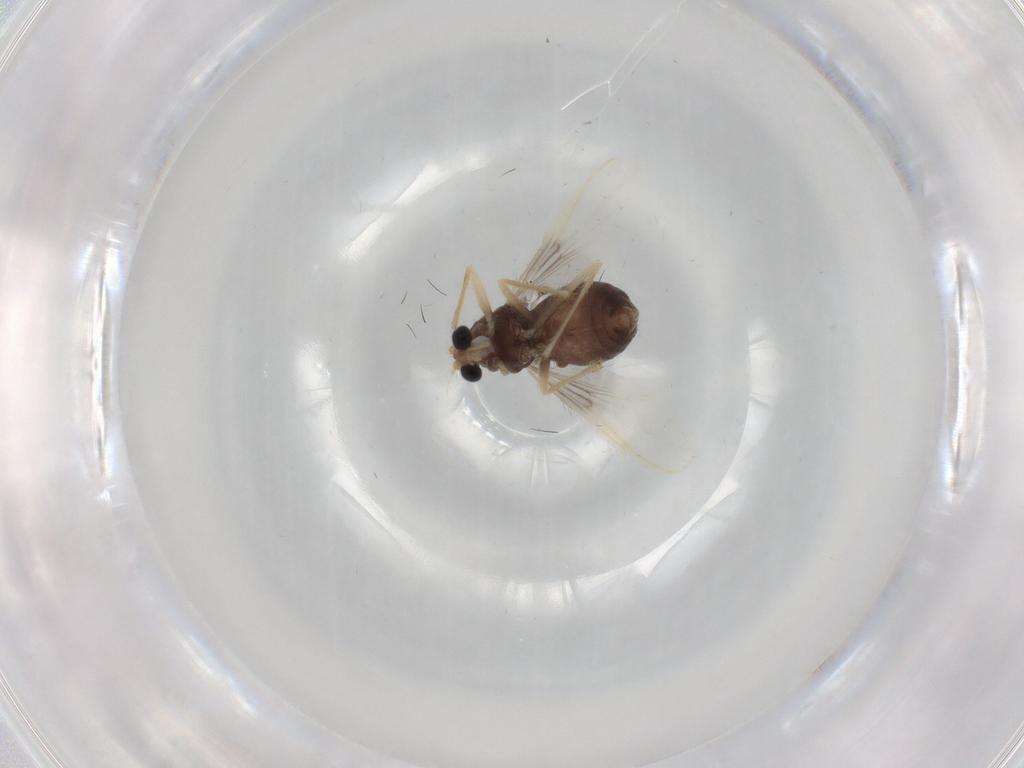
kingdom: Animalia
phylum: Arthropoda
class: Insecta
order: Diptera
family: Chironomidae
